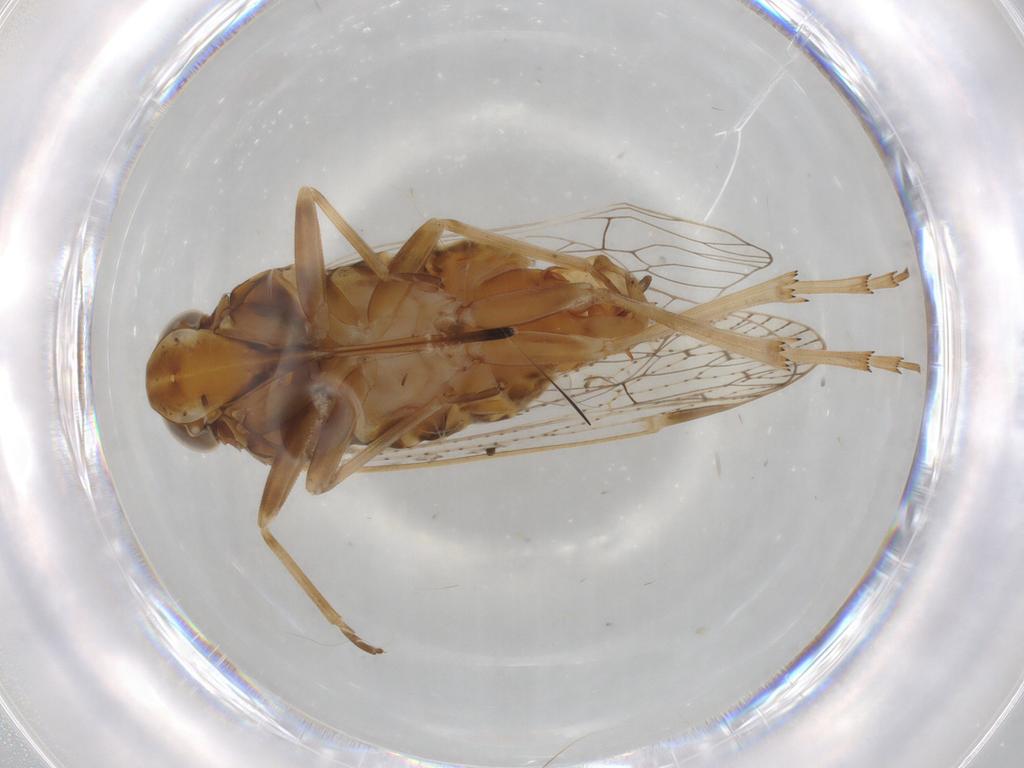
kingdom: Animalia
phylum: Arthropoda
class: Insecta
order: Hemiptera
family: Cixiidae
